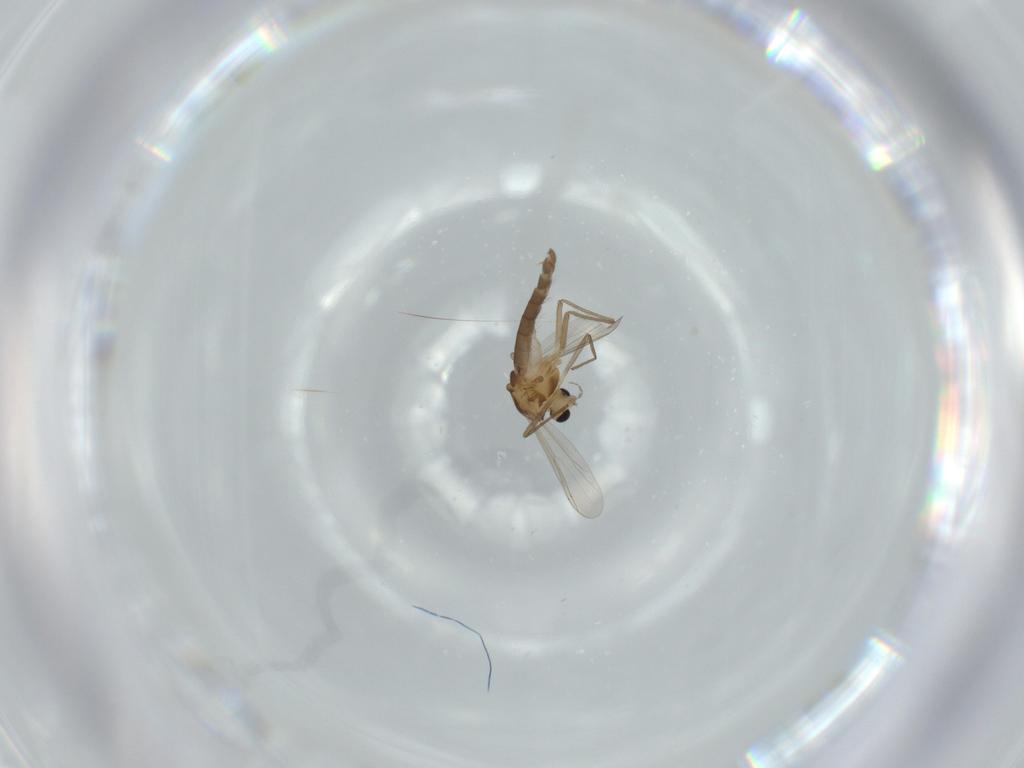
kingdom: Animalia
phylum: Arthropoda
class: Insecta
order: Diptera
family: Chironomidae
